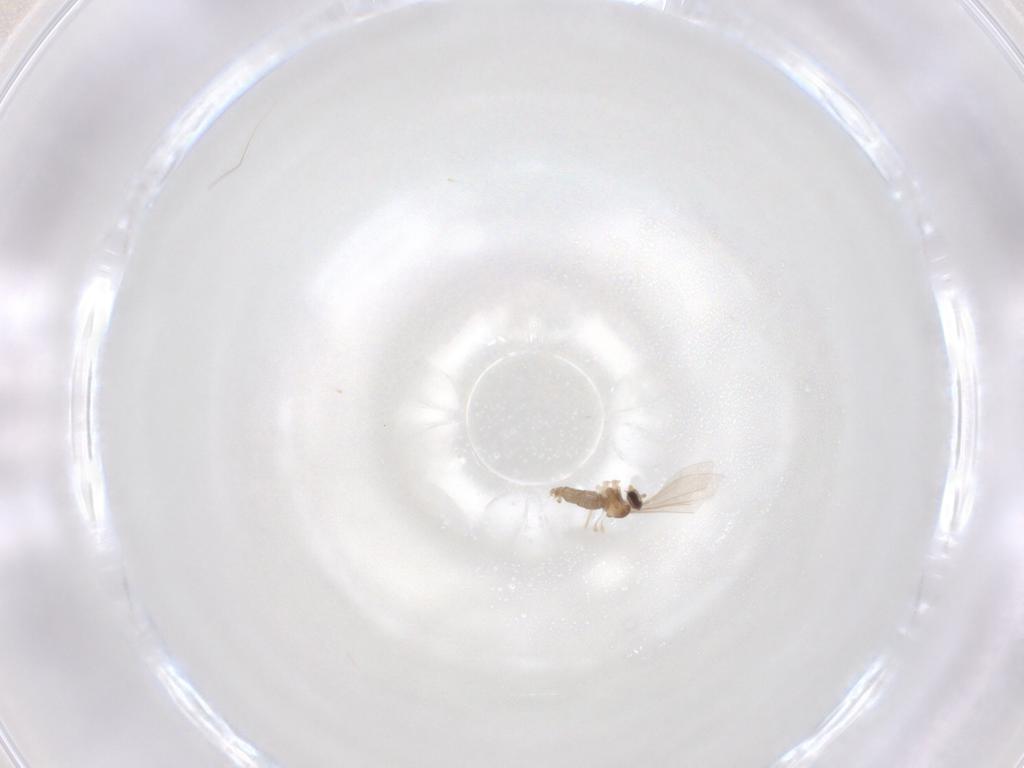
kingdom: Animalia
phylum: Arthropoda
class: Insecta
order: Diptera
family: Cecidomyiidae
